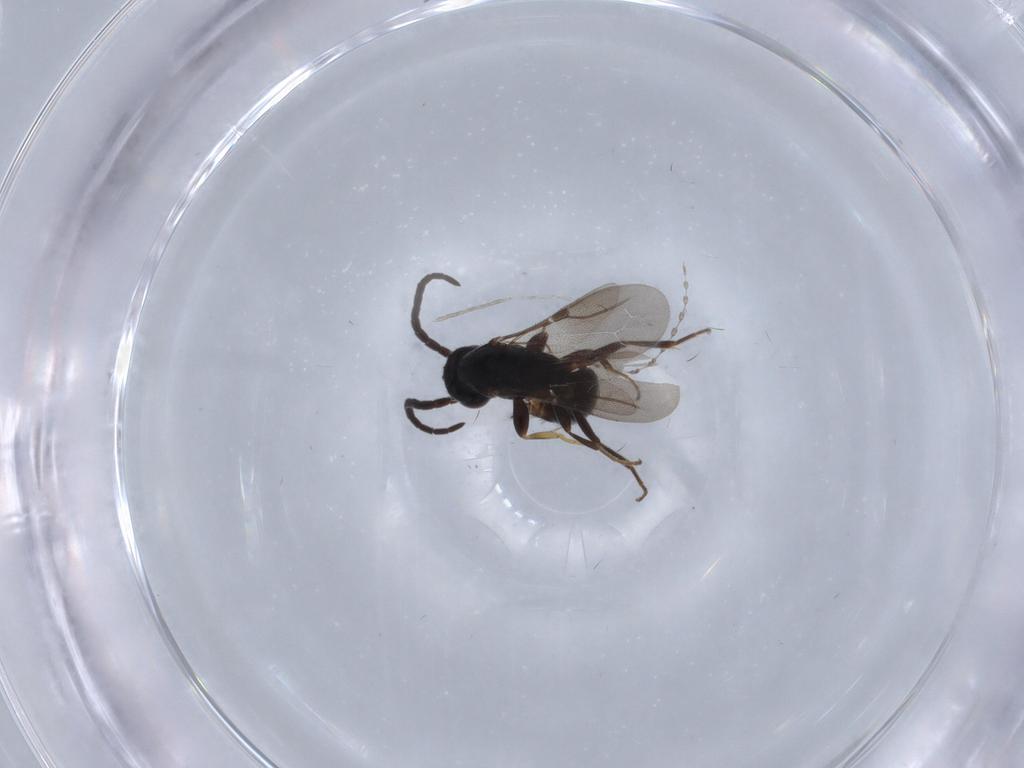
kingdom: Animalia
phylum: Arthropoda
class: Insecta
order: Hymenoptera
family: Bethylidae
